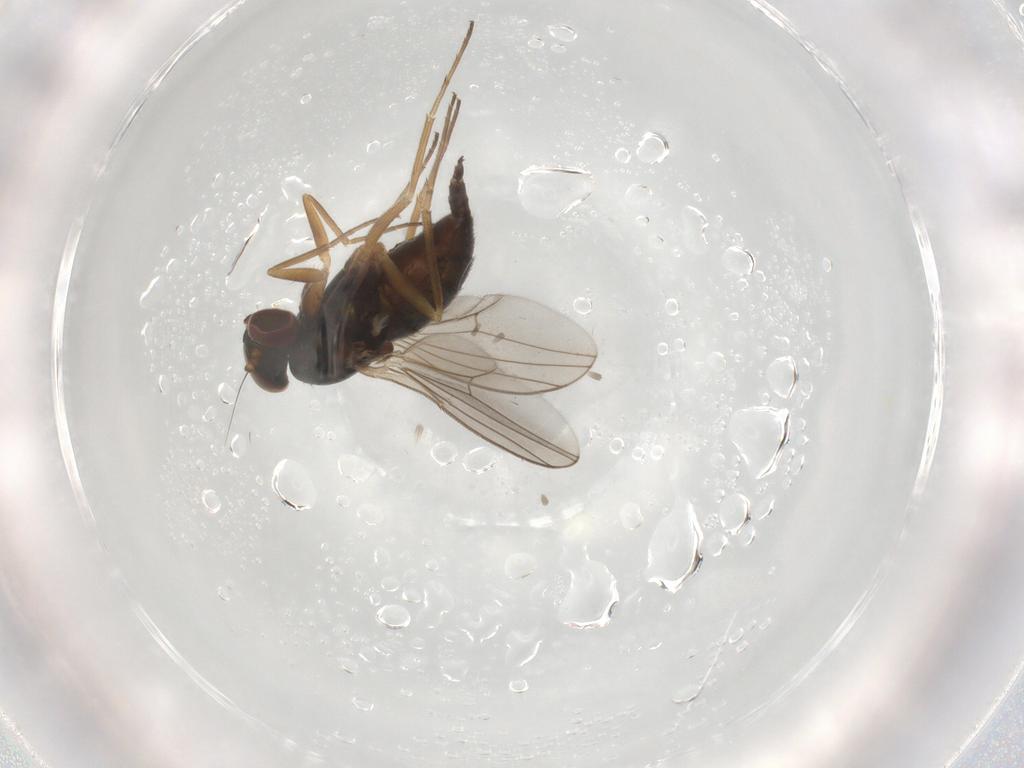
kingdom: Animalia
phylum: Arthropoda
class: Insecta
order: Diptera
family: Dolichopodidae
